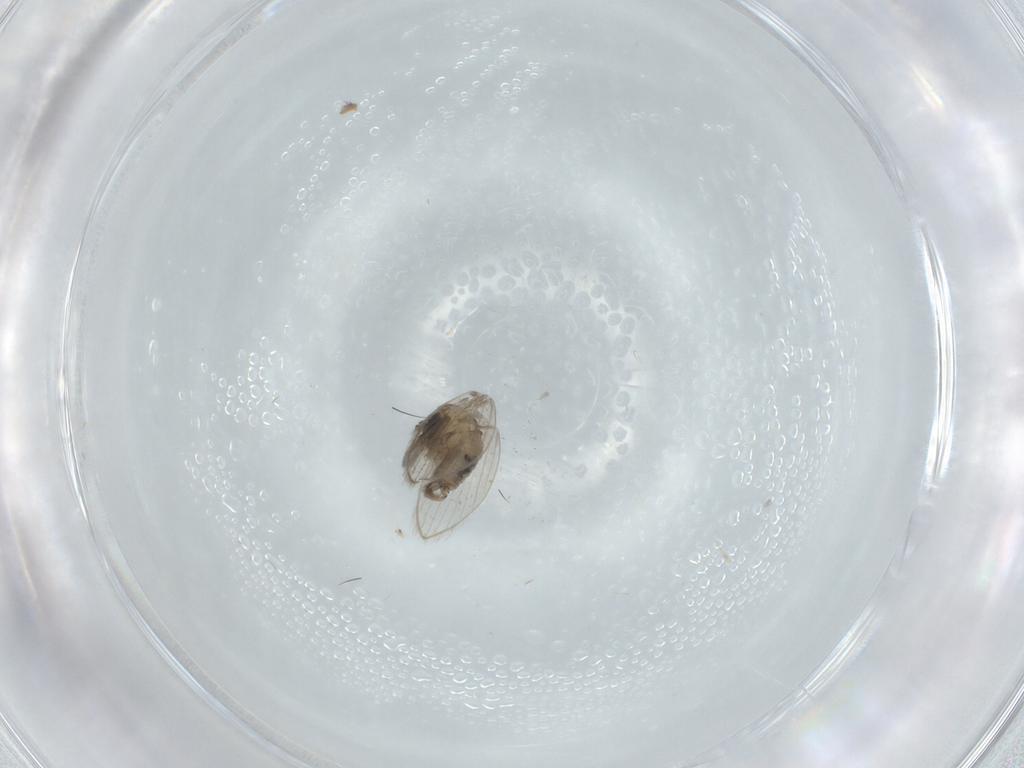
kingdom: Animalia
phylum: Arthropoda
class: Insecta
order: Diptera
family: Psychodidae
